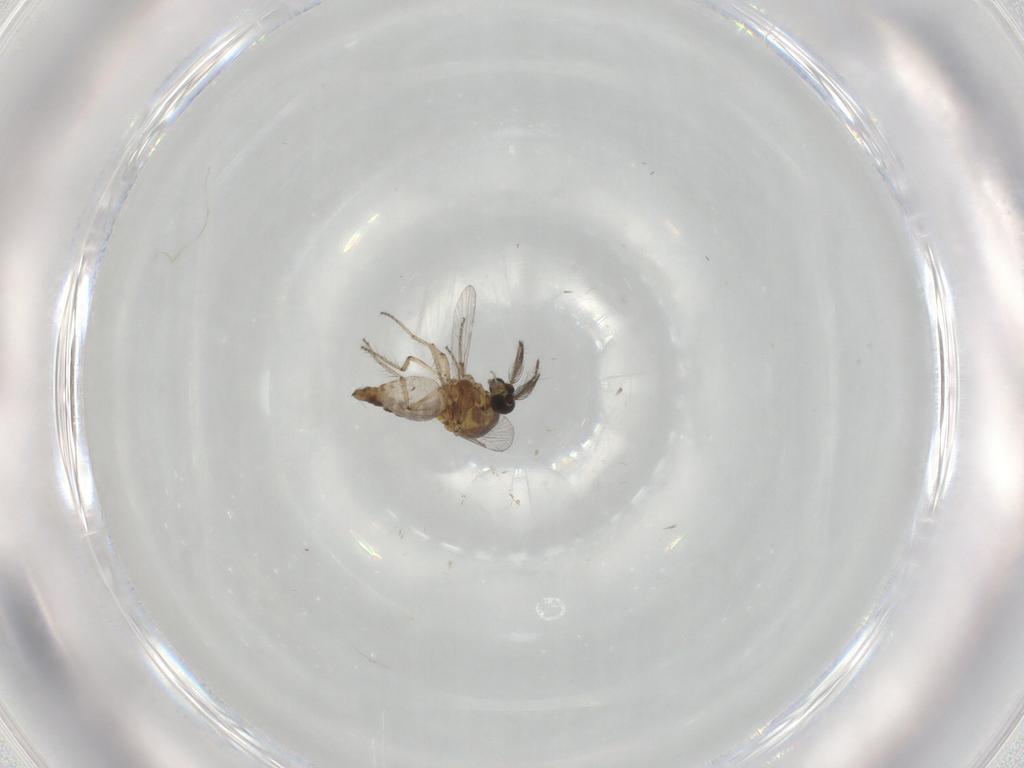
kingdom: Animalia
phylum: Arthropoda
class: Insecta
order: Diptera
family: Ceratopogonidae
